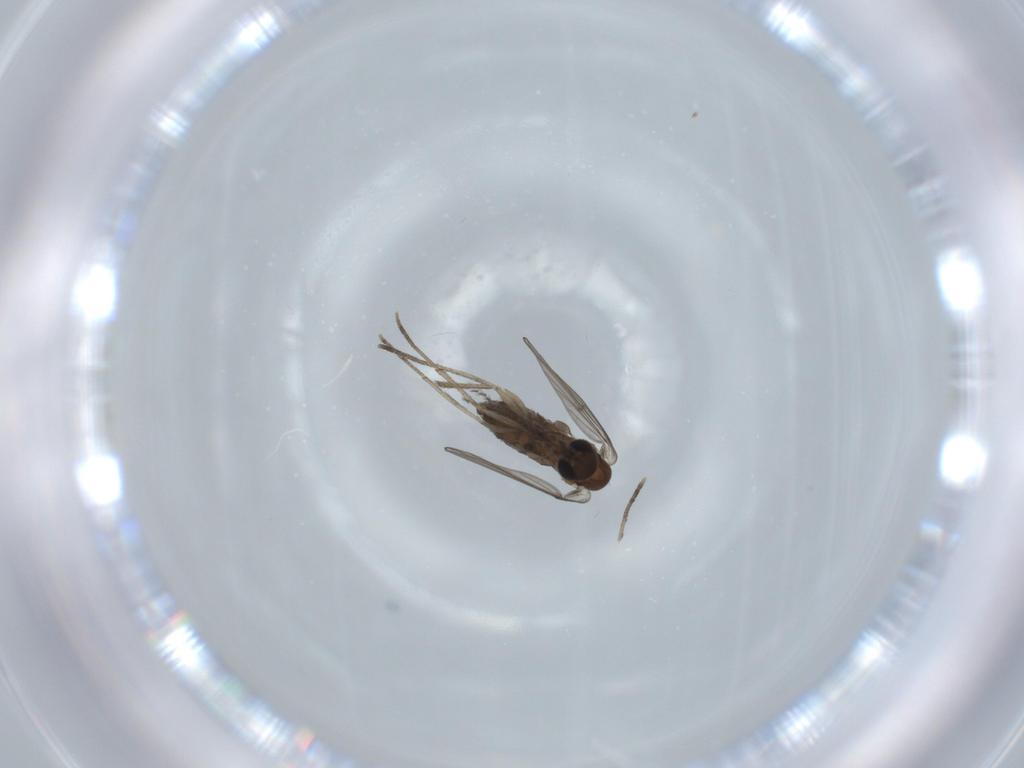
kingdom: Animalia
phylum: Arthropoda
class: Insecta
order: Diptera
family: Psychodidae
